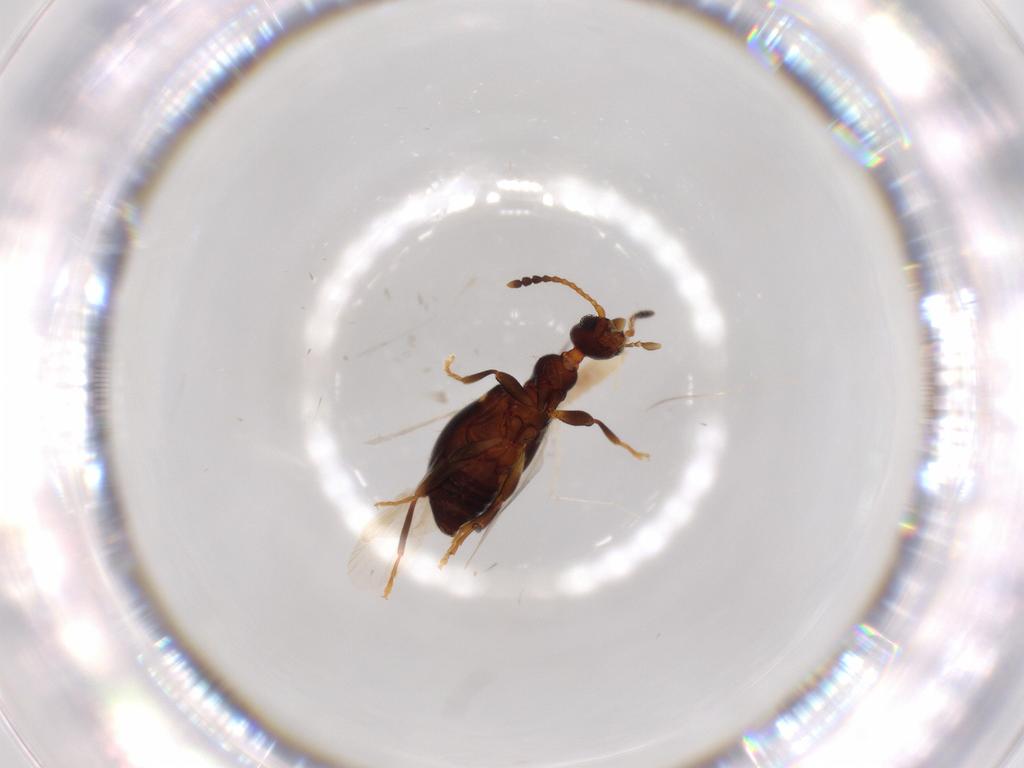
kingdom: Animalia
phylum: Arthropoda
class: Insecta
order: Coleoptera
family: Anthicidae
